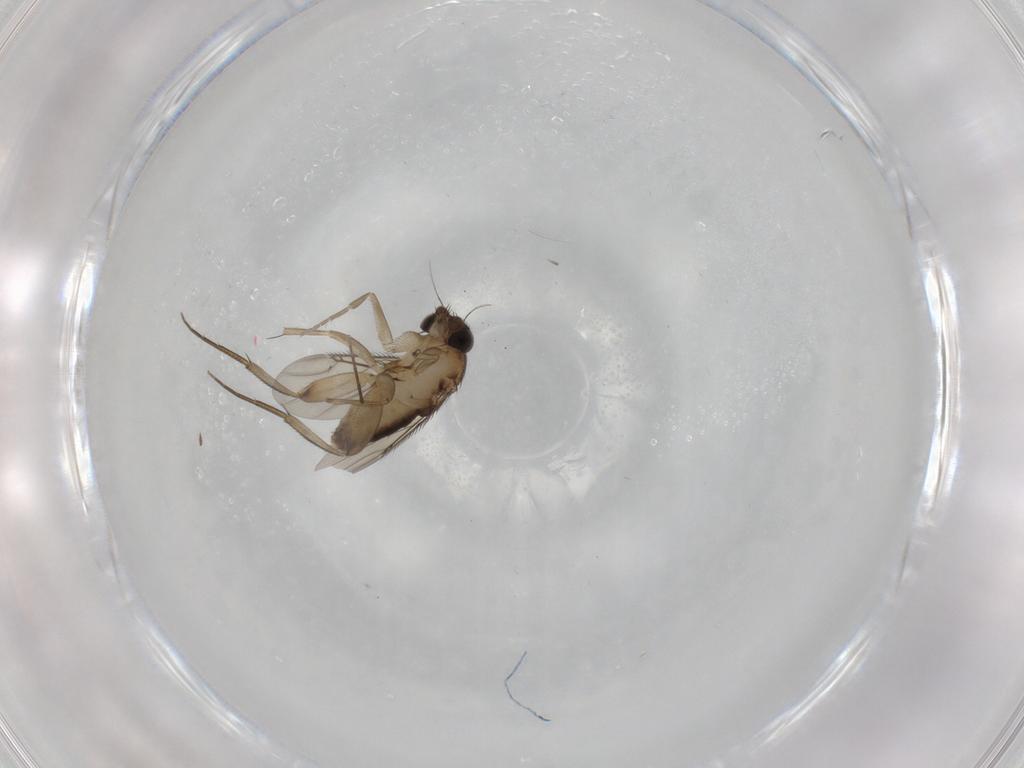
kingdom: Animalia
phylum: Arthropoda
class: Insecta
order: Diptera
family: Phoridae
